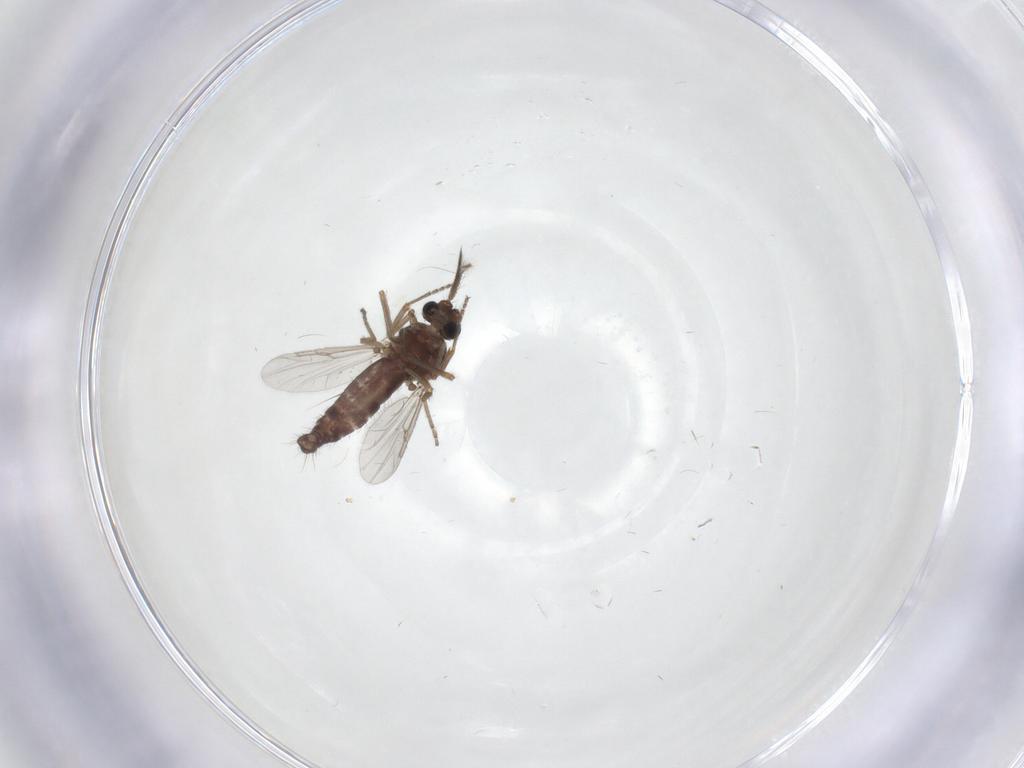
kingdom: Animalia
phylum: Arthropoda
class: Insecta
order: Diptera
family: Ceratopogonidae
